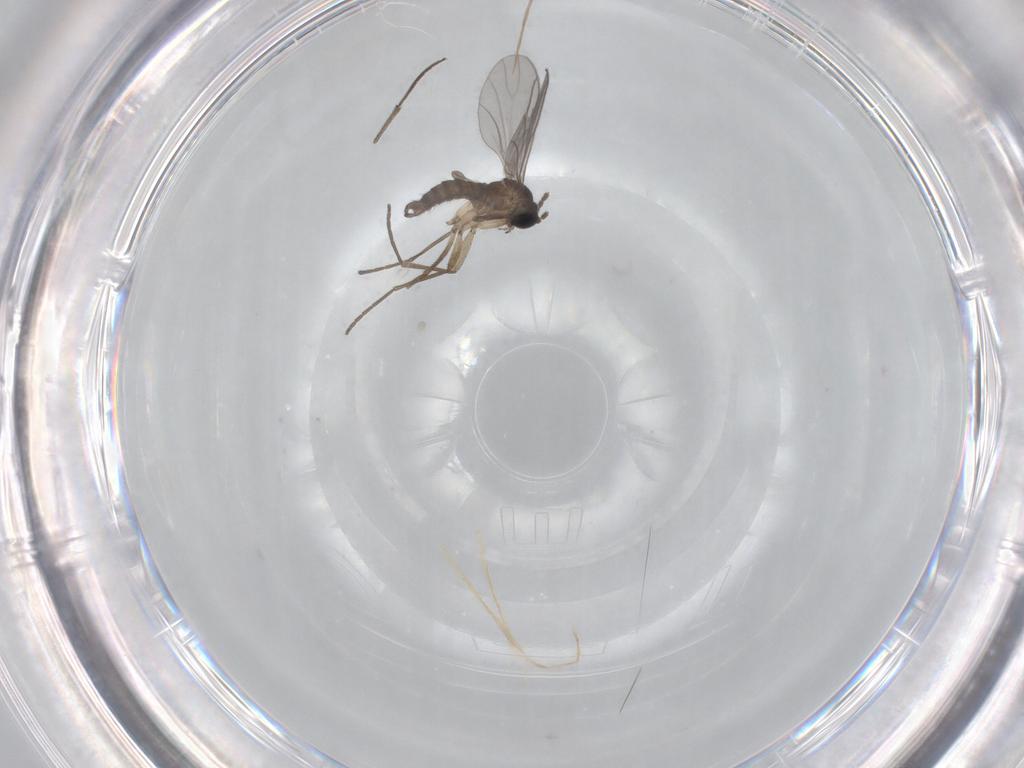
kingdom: Animalia
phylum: Arthropoda
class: Insecta
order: Diptera
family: Sciaridae
